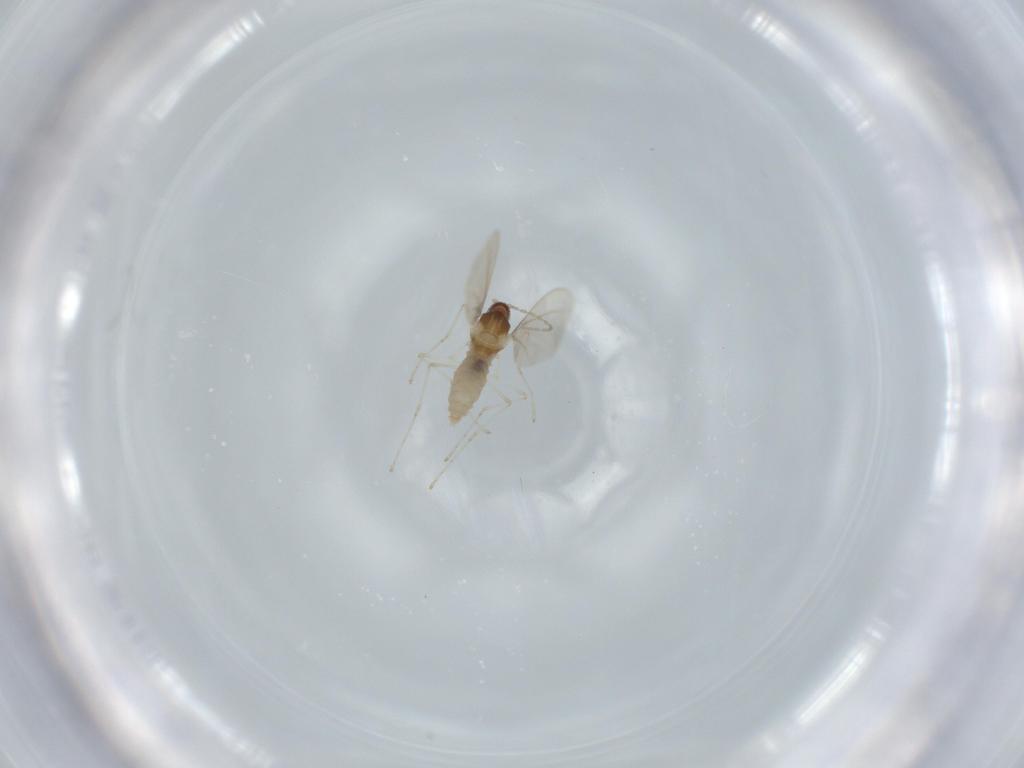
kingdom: Animalia
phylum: Arthropoda
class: Insecta
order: Diptera
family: Cecidomyiidae
